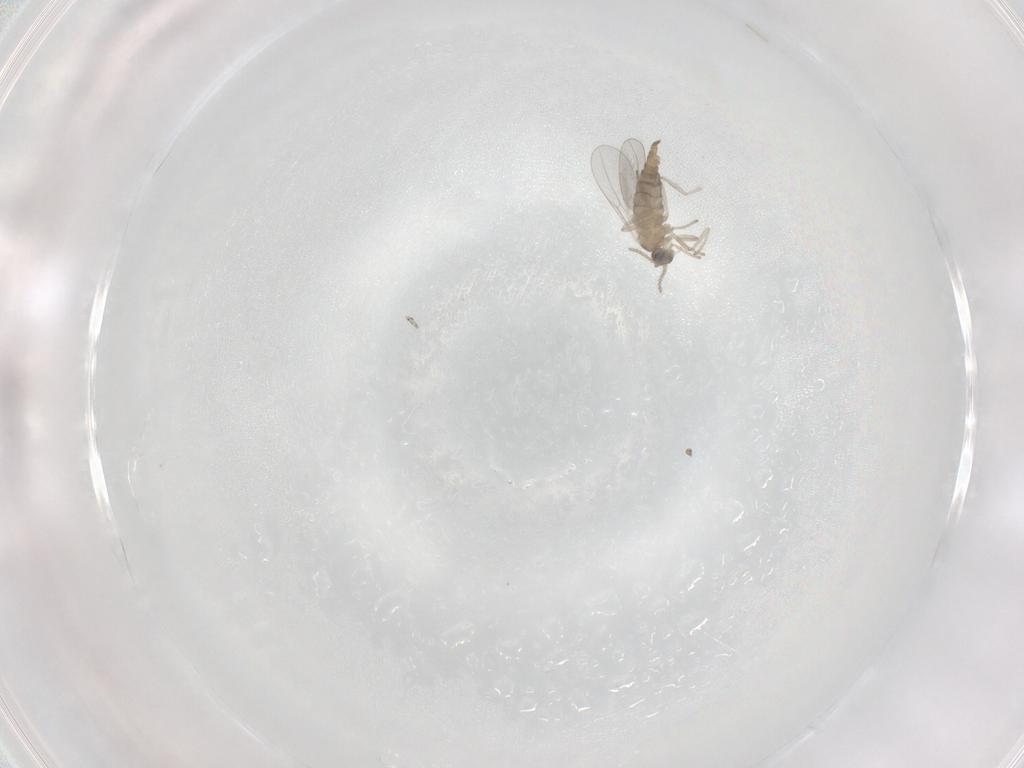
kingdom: Animalia
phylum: Arthropoda
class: Insecta
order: Diptera
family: Cecidomyiidae
